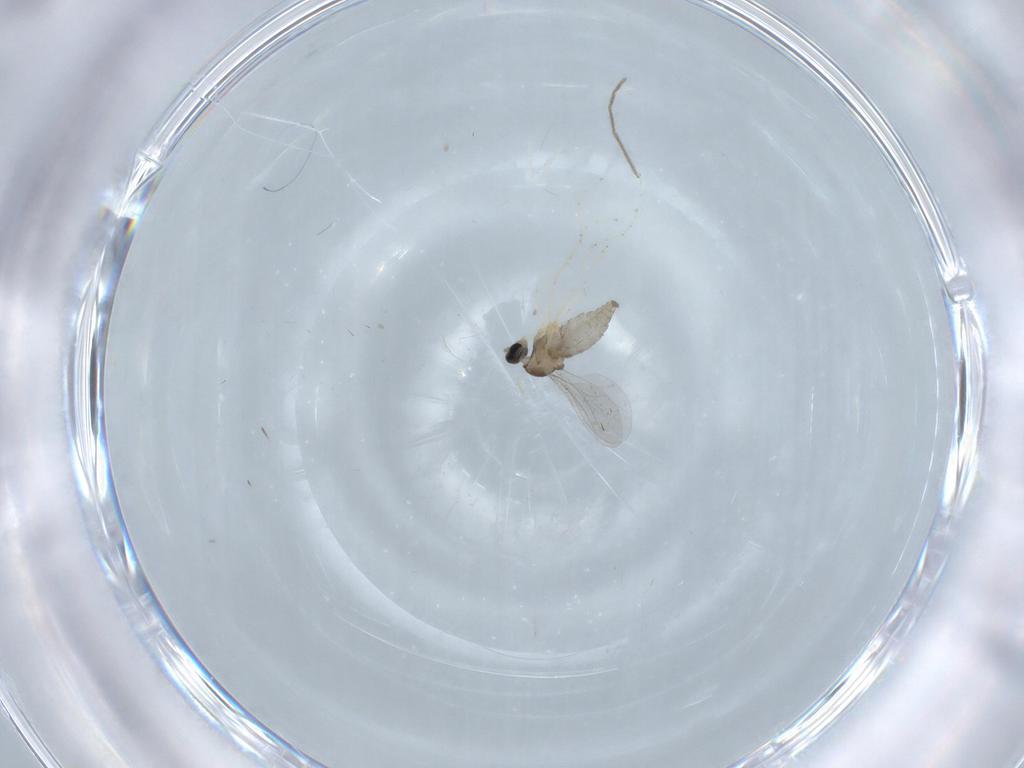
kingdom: Animalia
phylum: Arthropoda
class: Insecta
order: Diptera
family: Cecidomyiidae
